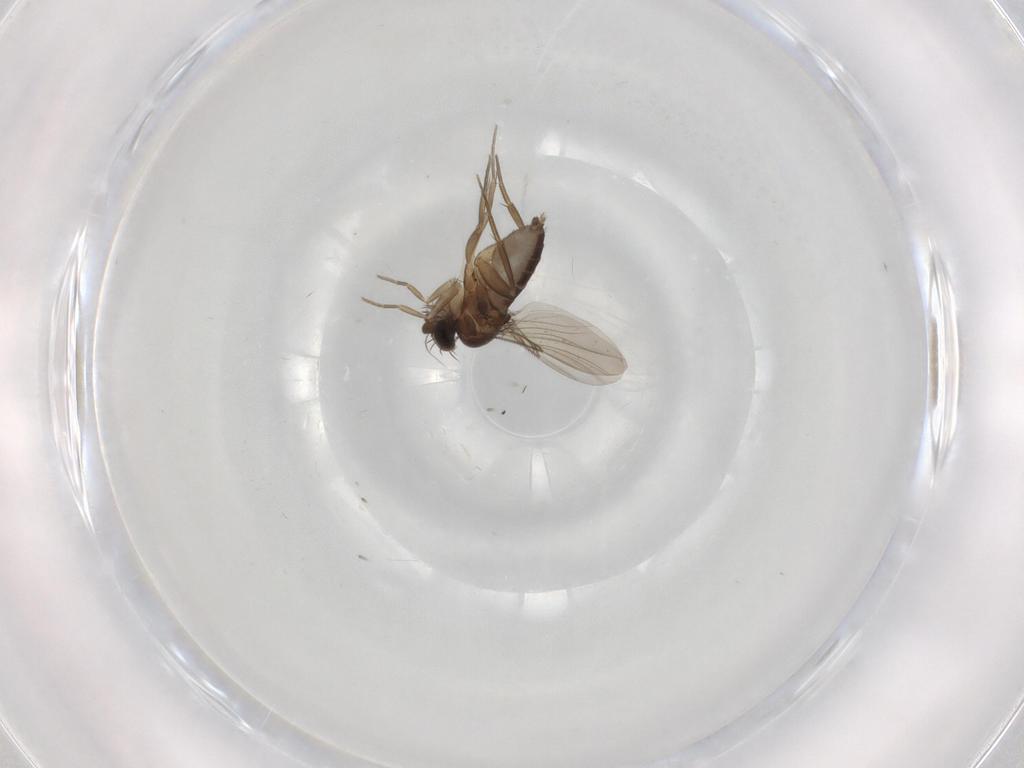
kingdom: Animalia
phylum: Arthropoda
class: Insecta
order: Diptera
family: Phoridae
